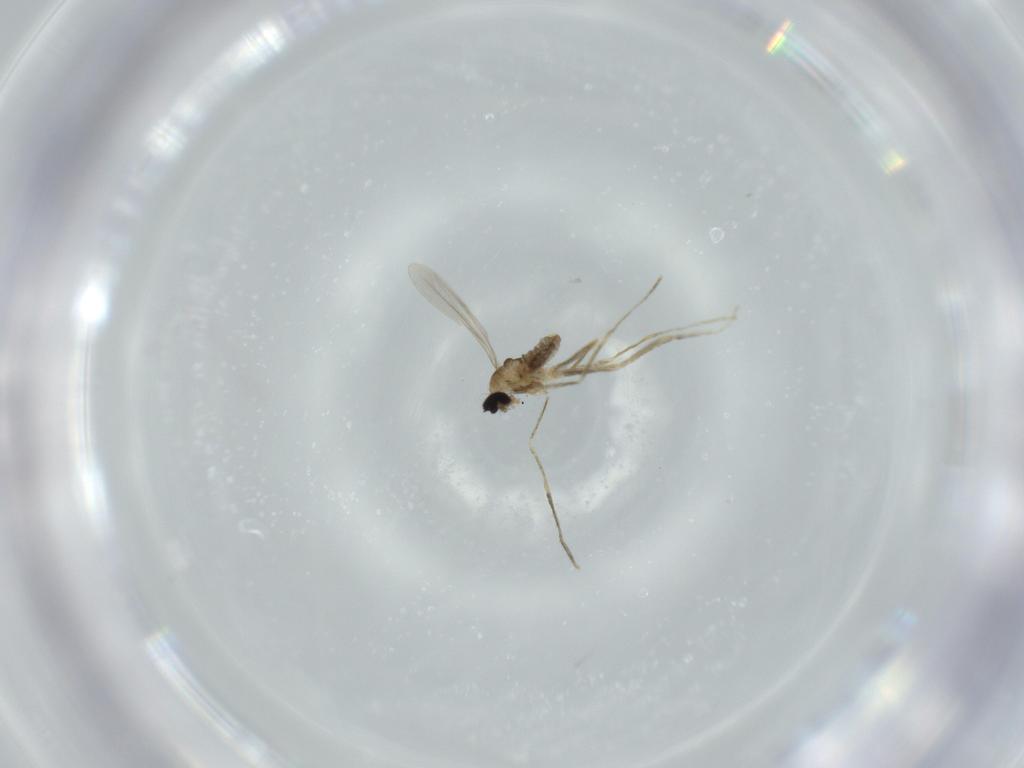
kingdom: Animalia
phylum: Arthropoda
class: Insecta
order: Diptera
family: Cecidomyiidae
